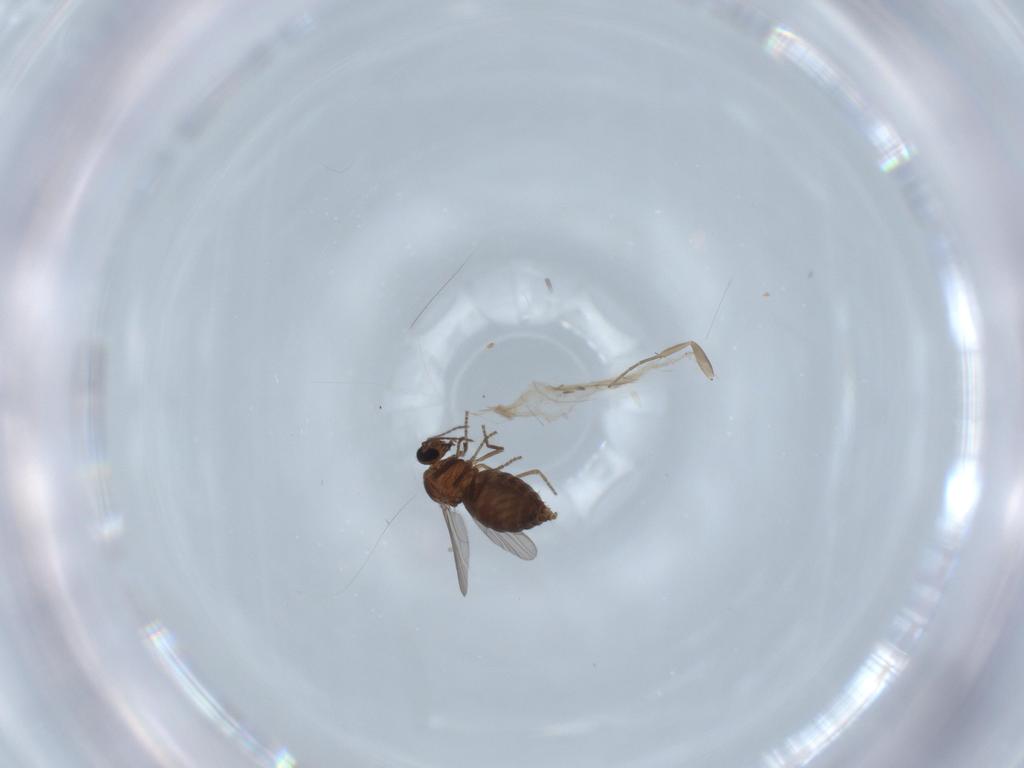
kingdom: Animalia
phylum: Arthropoda
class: Insecta
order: Diptera
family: Ceratopogonidae
